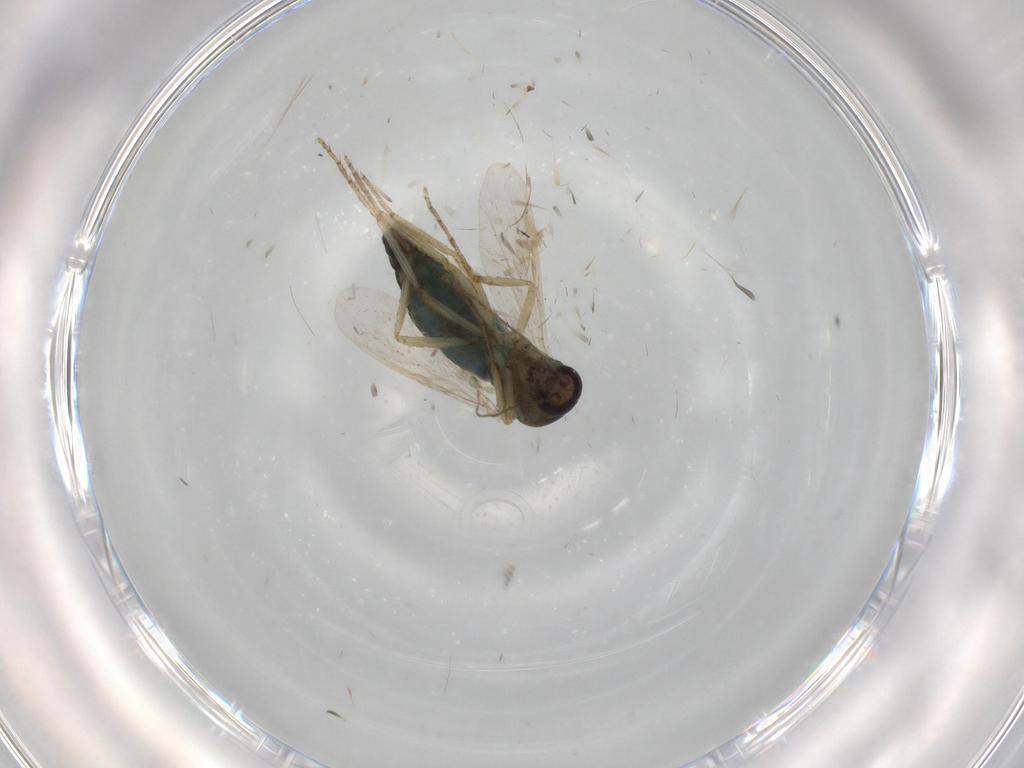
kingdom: Animalia
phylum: Arthropoda
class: Insecta
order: Diptera
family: Ceratopogonidae
